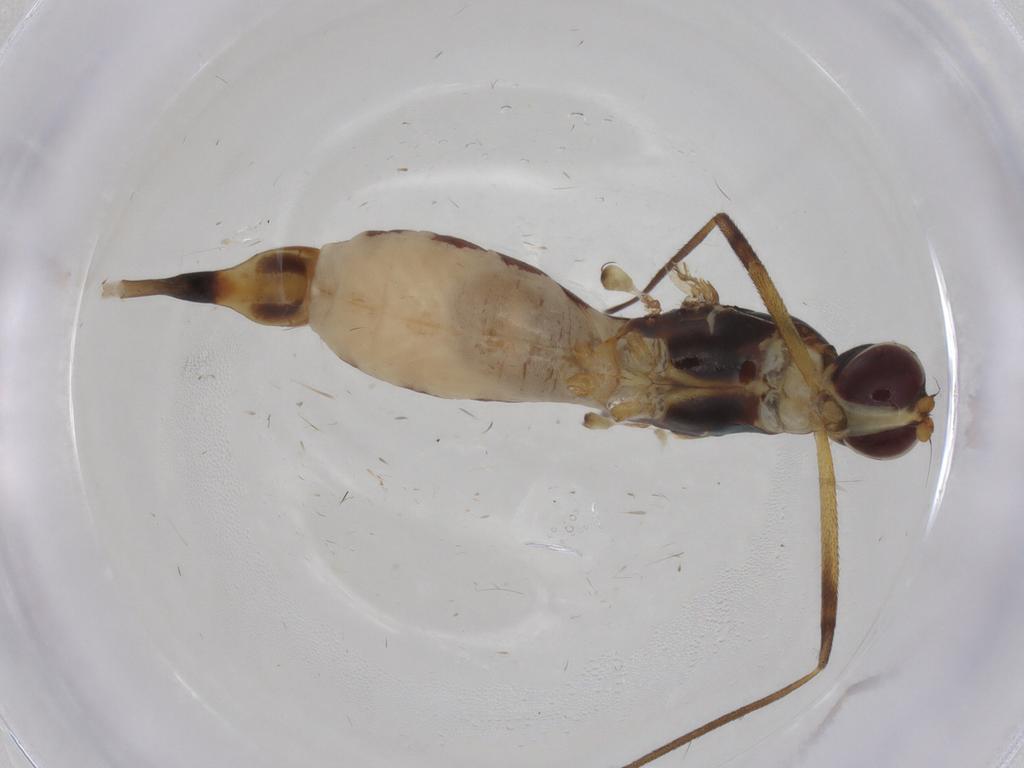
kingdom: Animalia
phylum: Arthropoda
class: Insecta
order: Diptera
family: Micropezidae
